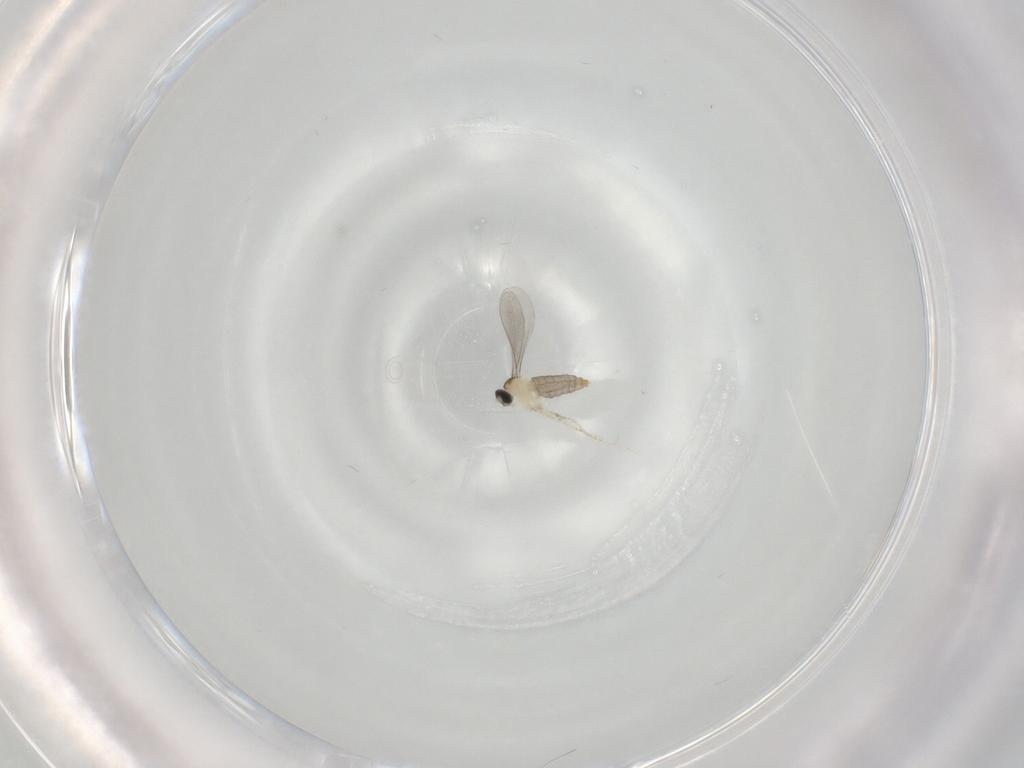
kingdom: Animalia
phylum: Arthropoda
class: Insecta
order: Diptera
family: Cecidomyiidae
